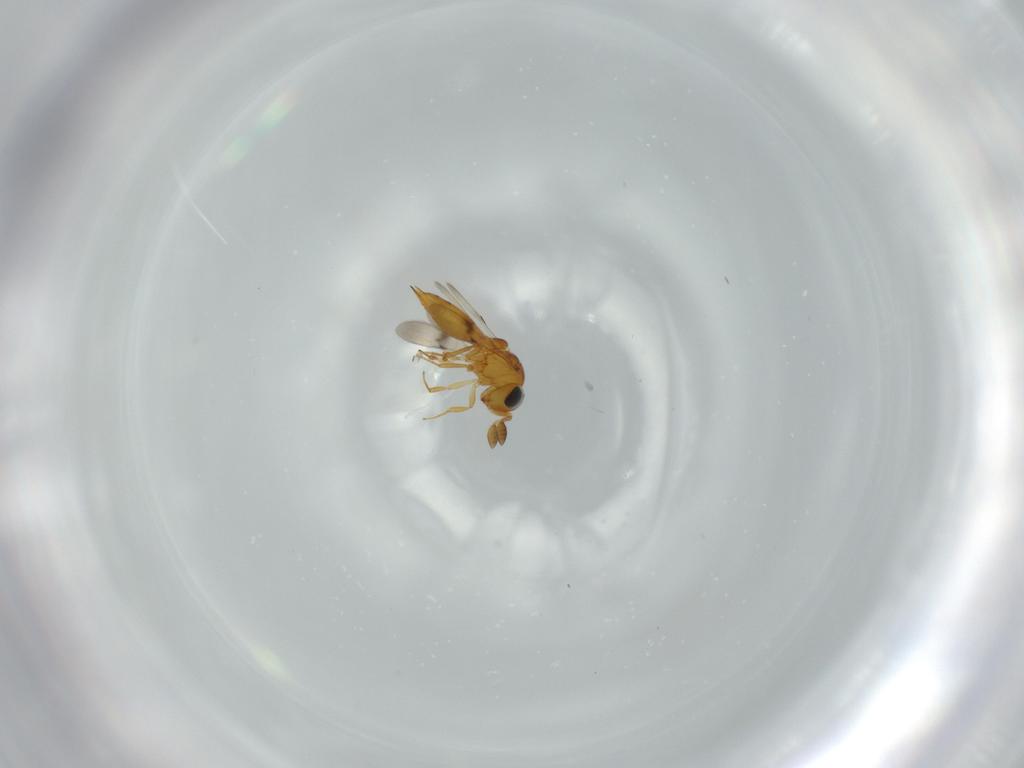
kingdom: Animalia
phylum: Arthropoda
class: Insecta
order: Hymenoptera
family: Scelionidae
